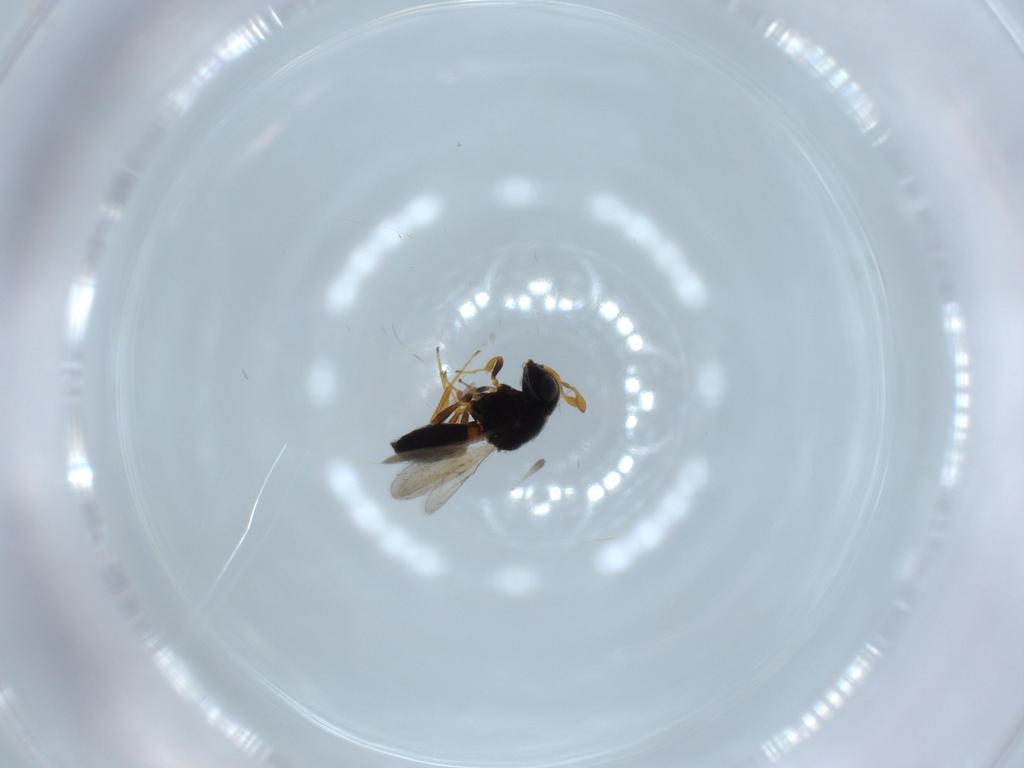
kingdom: Animalia
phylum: Arthropoda
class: Insecta
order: Hymenoptera
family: Scelionidae
